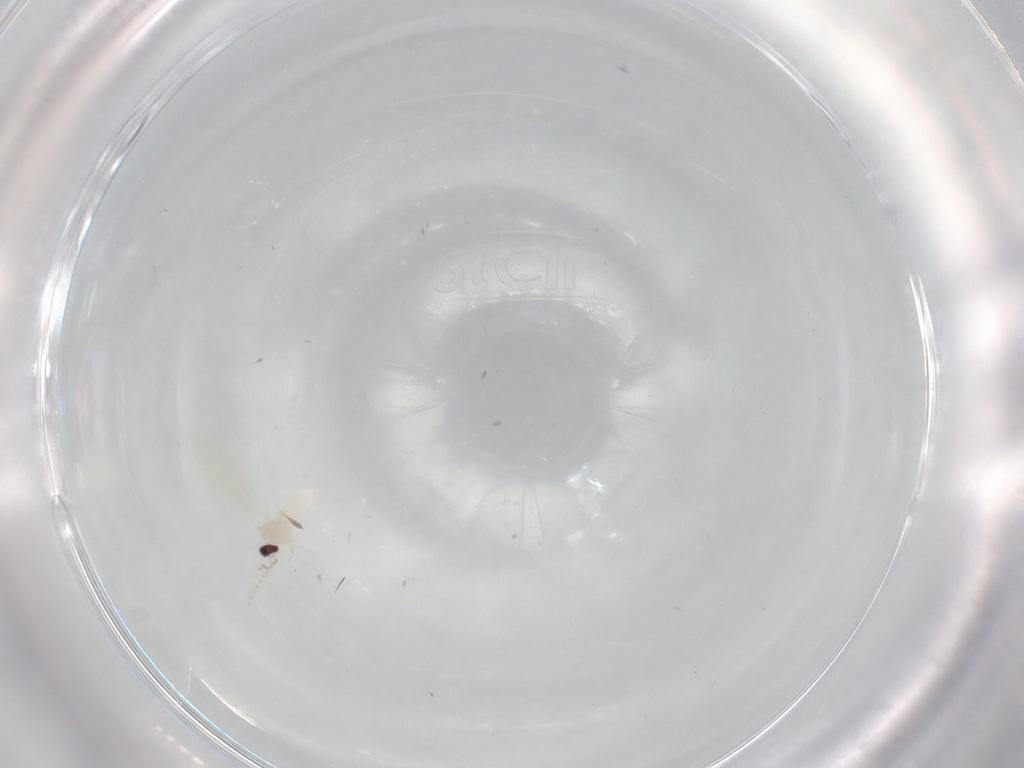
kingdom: Animalia
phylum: Arthropoda
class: Insecta
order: Diptera
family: Cecidomyiidae
